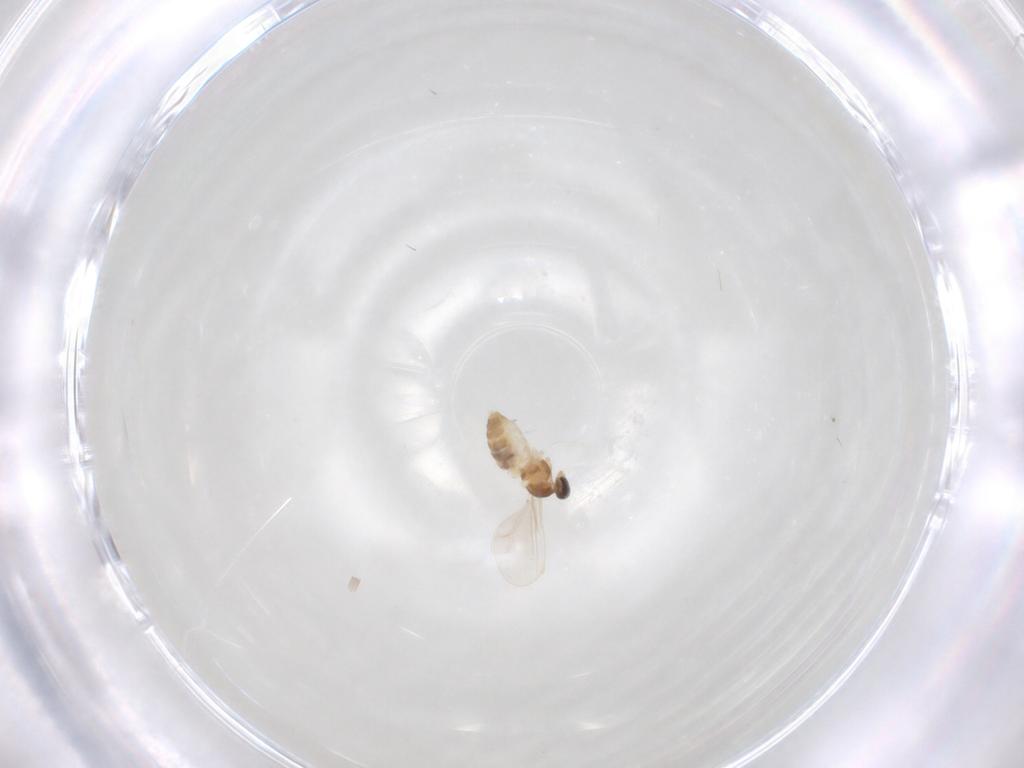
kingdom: Animalia
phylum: Arthropoda
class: Insecta
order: Diptera
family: Cecidomyiidae
